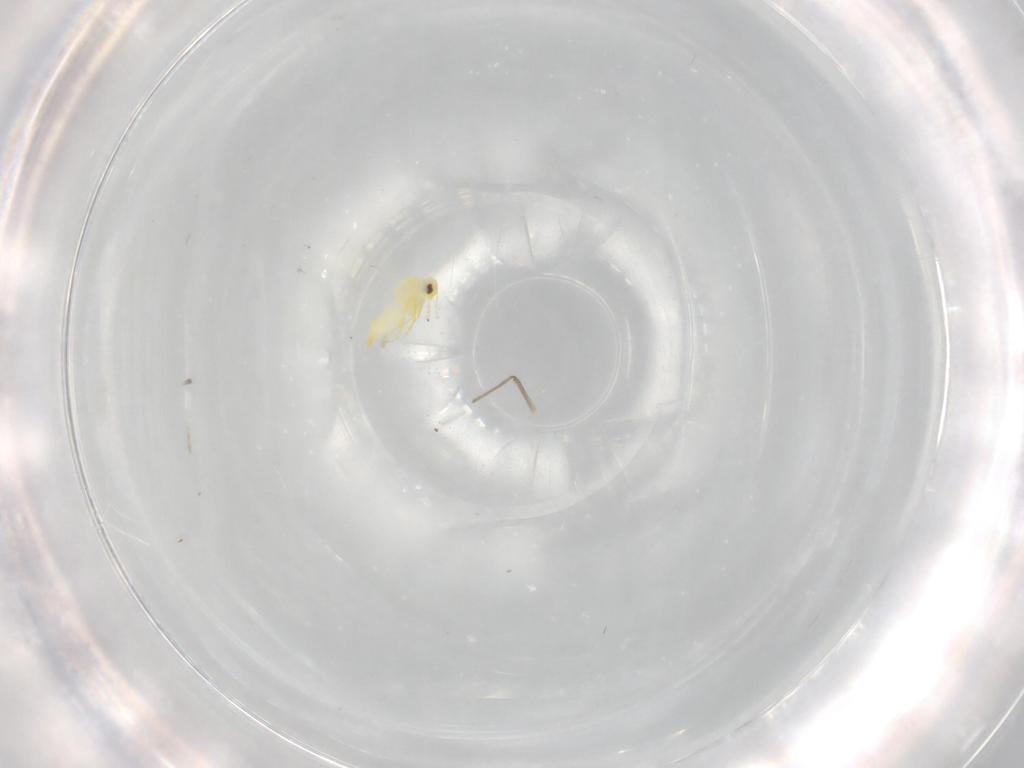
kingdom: Animalia
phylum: Arthropoda
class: Insecta
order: Hemiptera
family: Aleyrodidae
